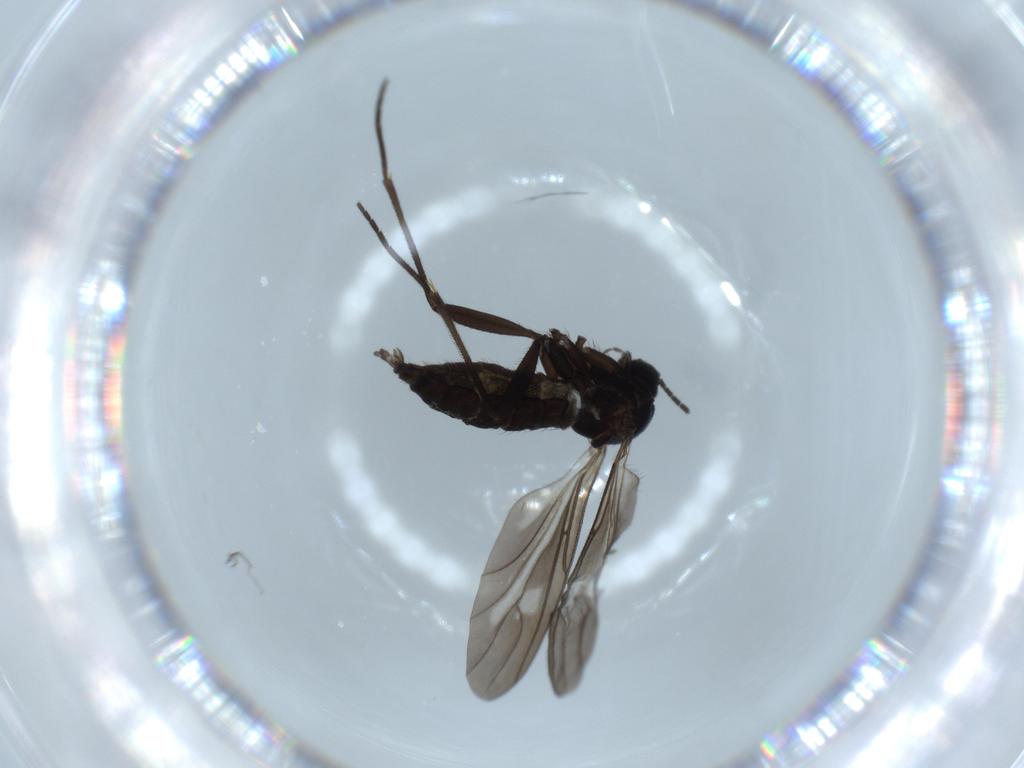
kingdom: Animalia
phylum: Arthropoda
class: Insecta
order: Diptera
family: Sciaridae
